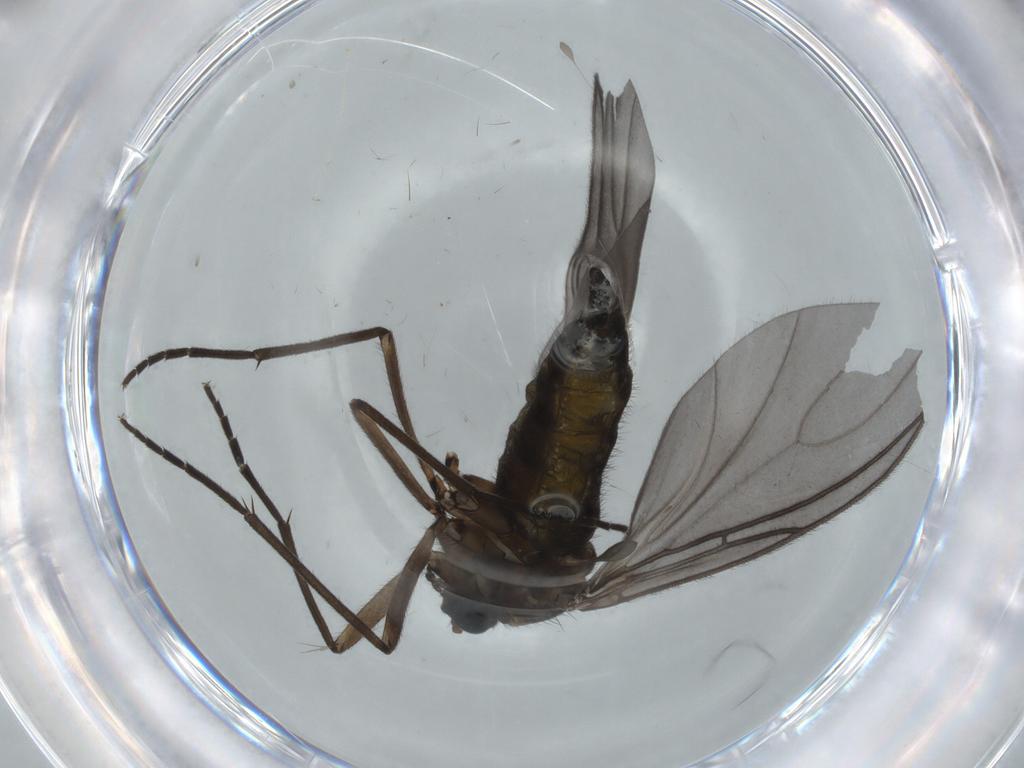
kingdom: Animalia
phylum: Arthropoda
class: Insecta
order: Diptera
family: Sciaridae
